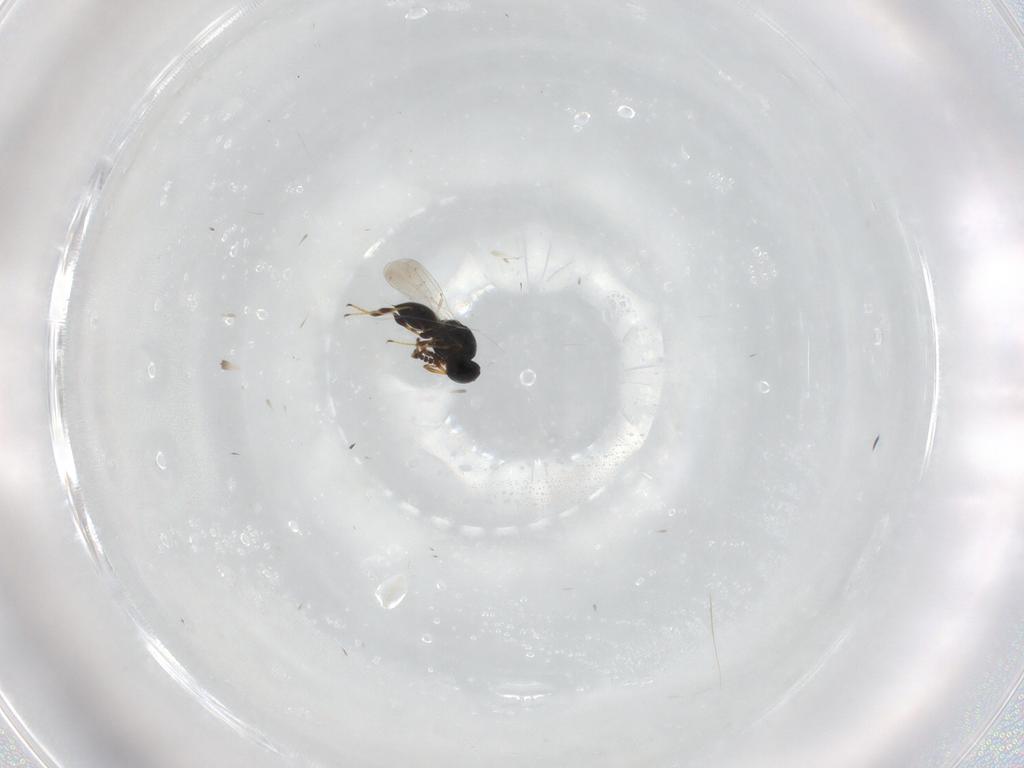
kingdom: Animalia
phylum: Arthropoda
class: Insecta
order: Hymenoptera
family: Platygastridae
